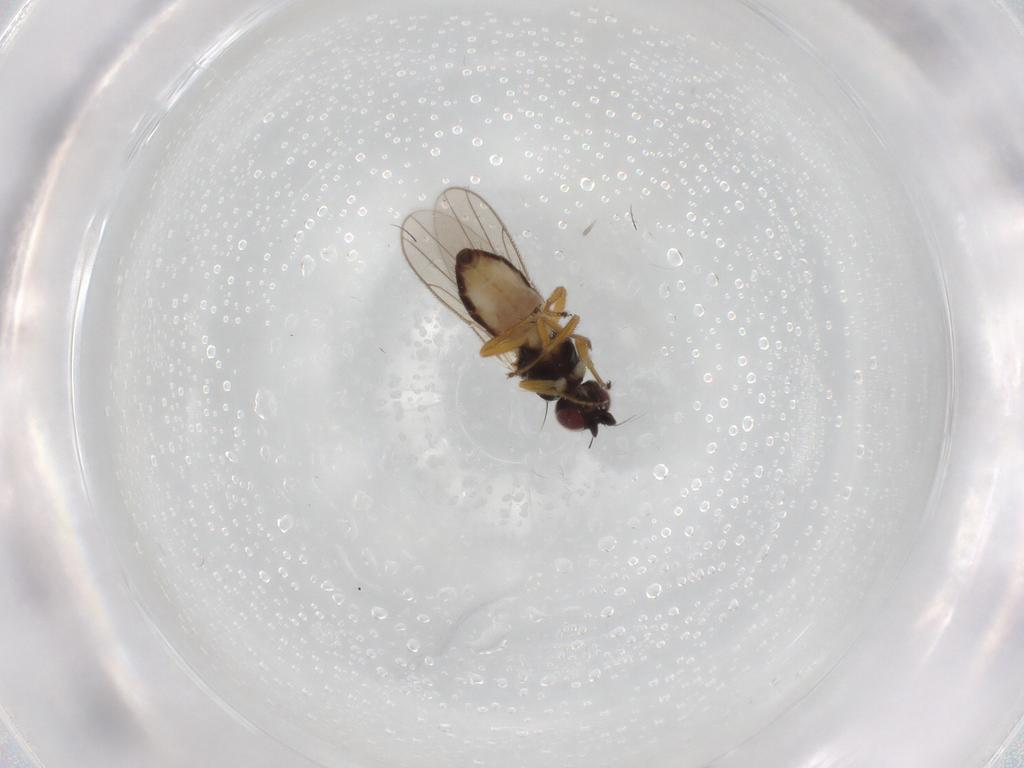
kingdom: Animalia
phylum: Arthropoda
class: Insecta
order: Diptera
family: Chloropidae
